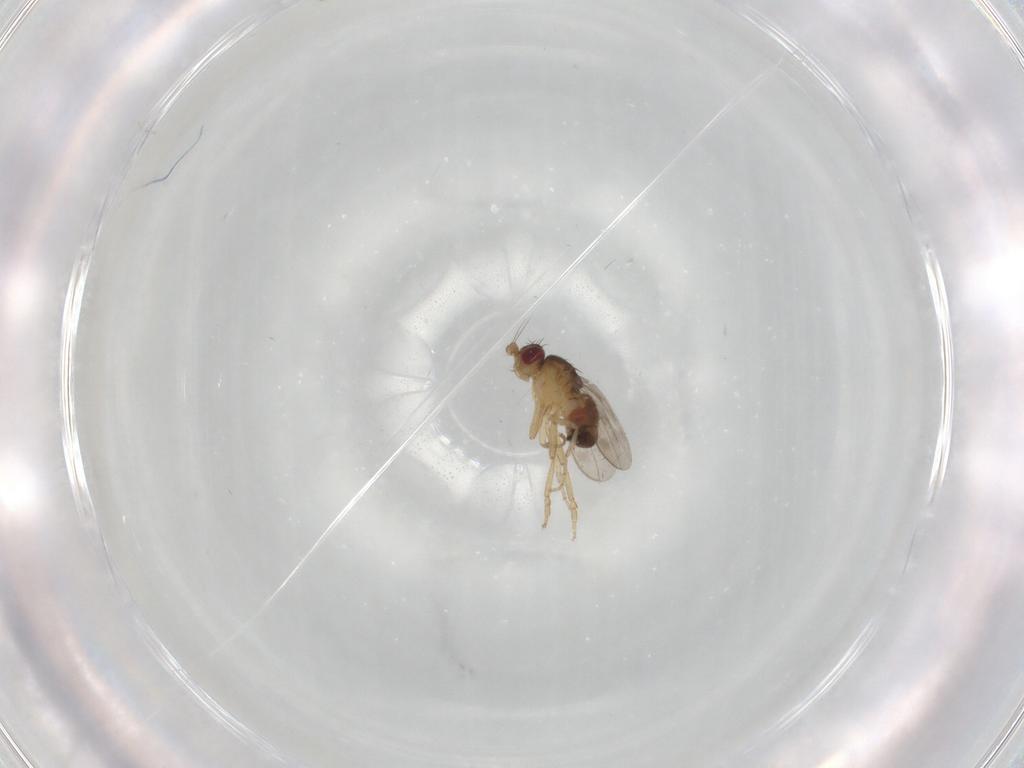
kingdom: Animalia
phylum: Arthropoda
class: Insecta
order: Diptera
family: Sphaeroceridae
